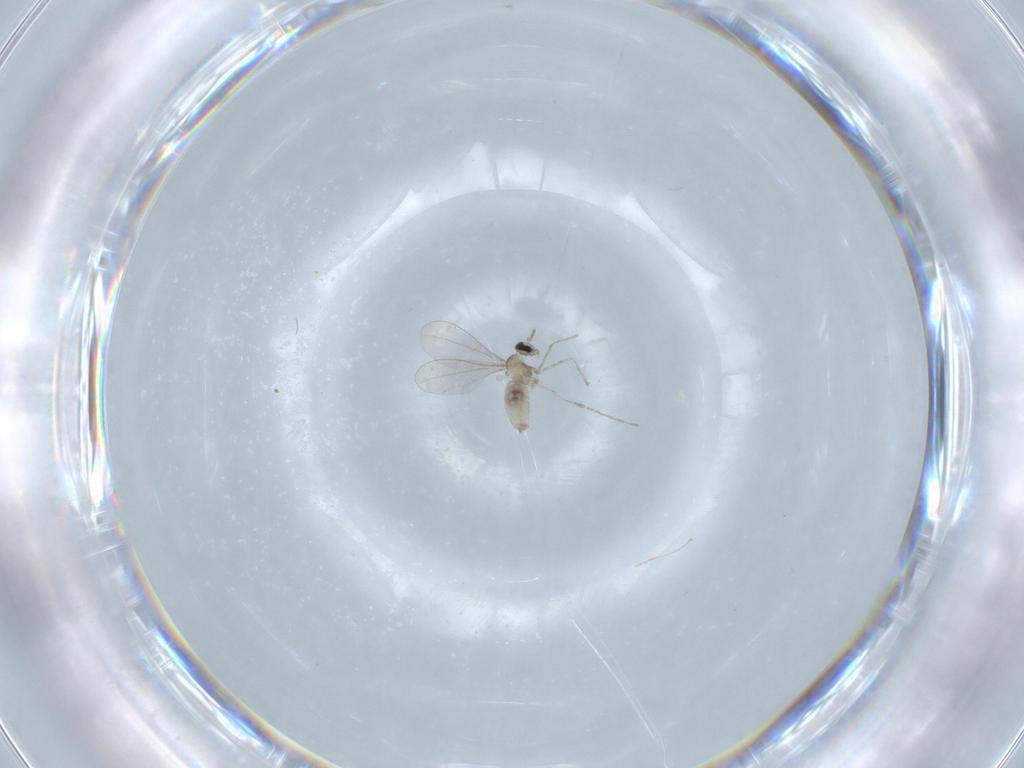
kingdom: Animalia
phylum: Arthropoda
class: Insecta
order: Diptera
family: Cecidomyiidae
